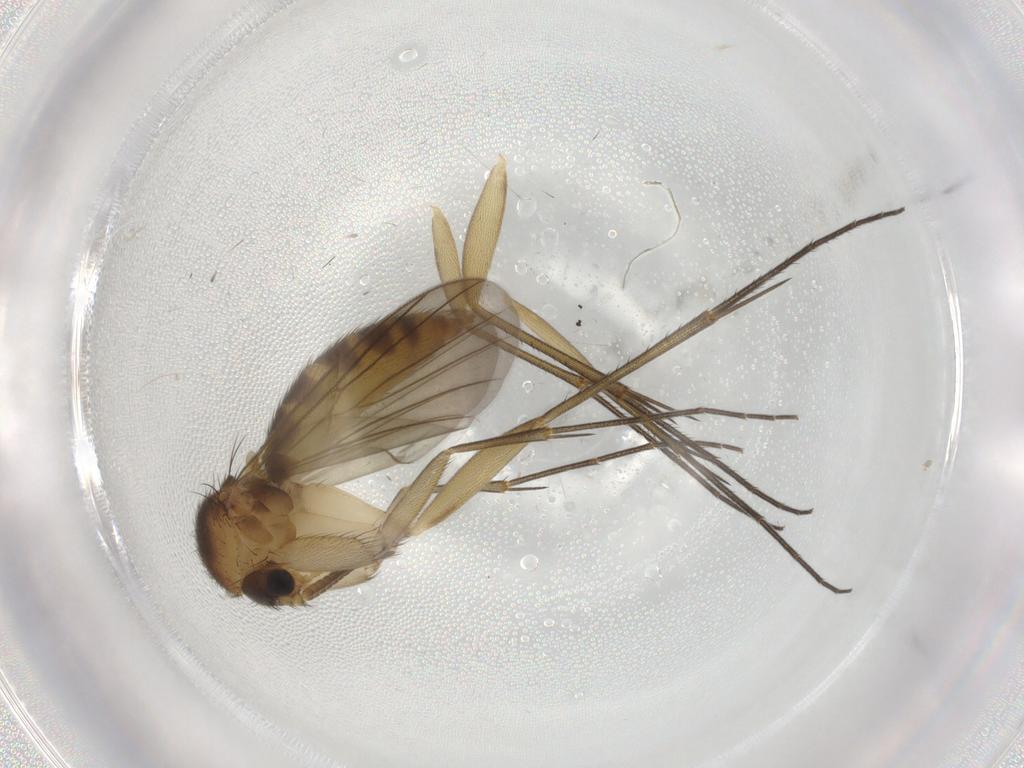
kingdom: Animalia
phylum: Arthropoda
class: Insecta
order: Diptera
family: Mycetophilidae
